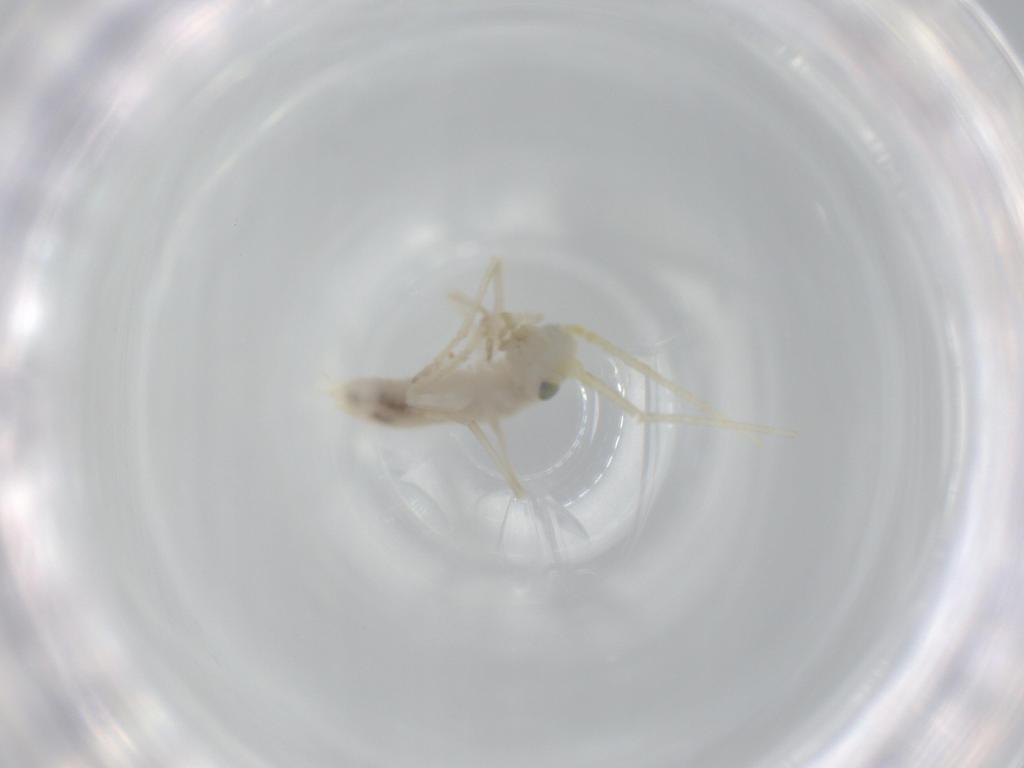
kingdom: Animalia
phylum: Arthropoda
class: Insecta
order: Orthoptera
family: Trigonidiidae
